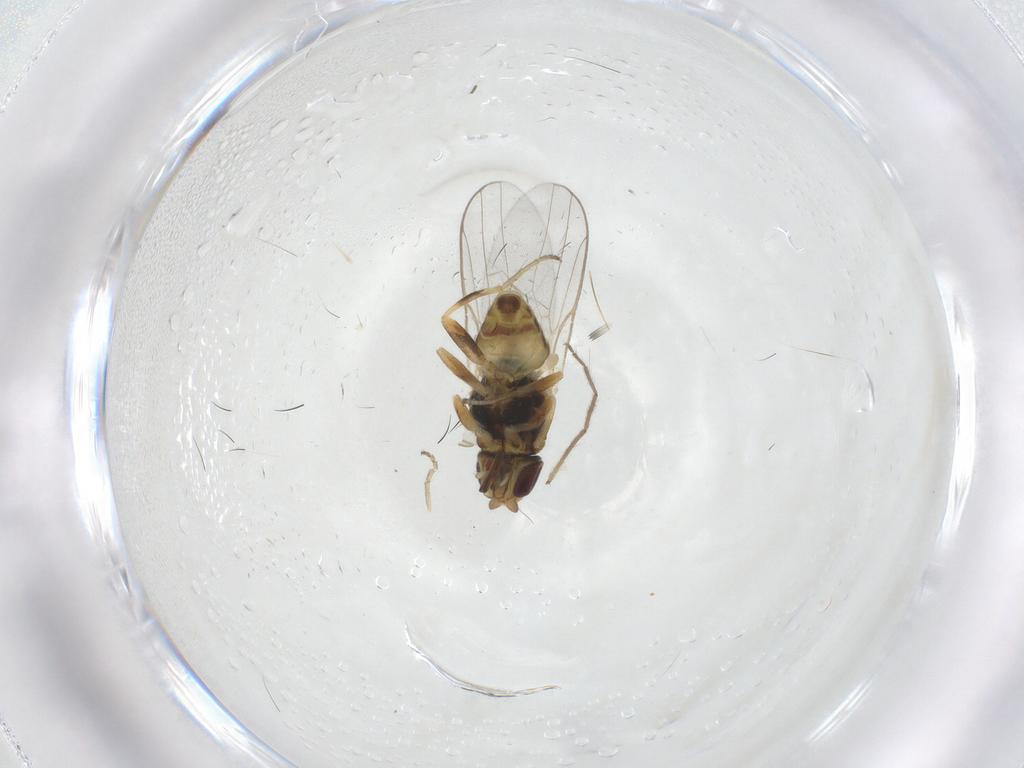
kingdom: Animalia
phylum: Arthropoda
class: Insecta
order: Diptera
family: Chloropidae
